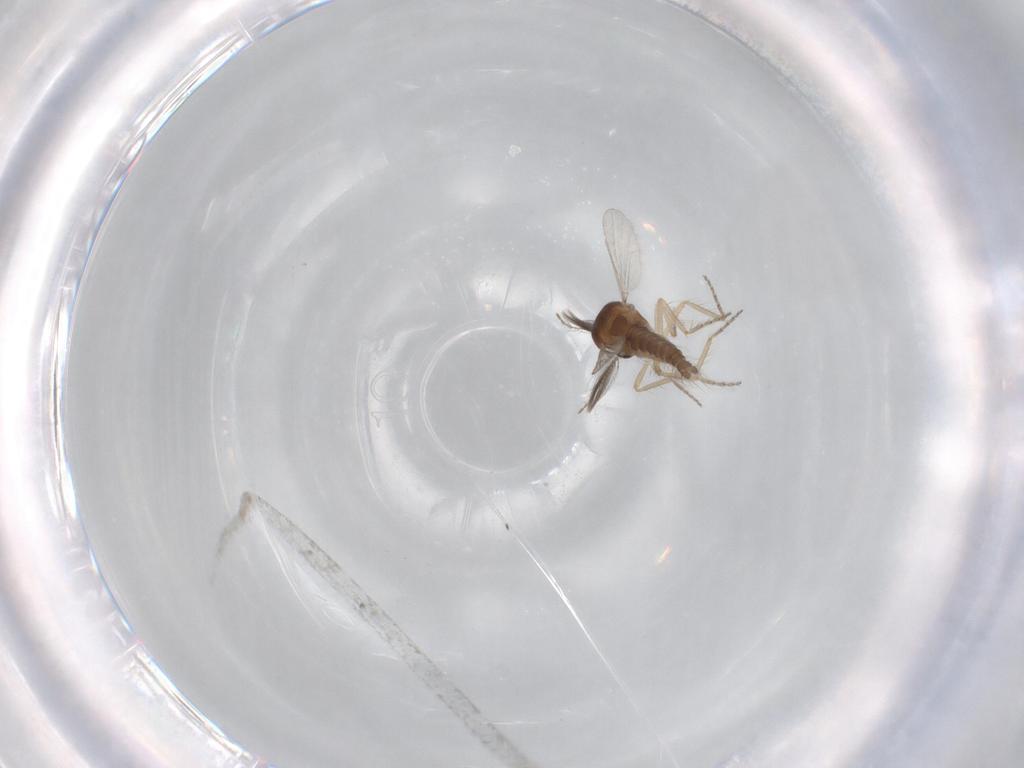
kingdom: Animalia
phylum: Arthropoda
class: Insecta
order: Diptera
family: Ceratopogonidae
